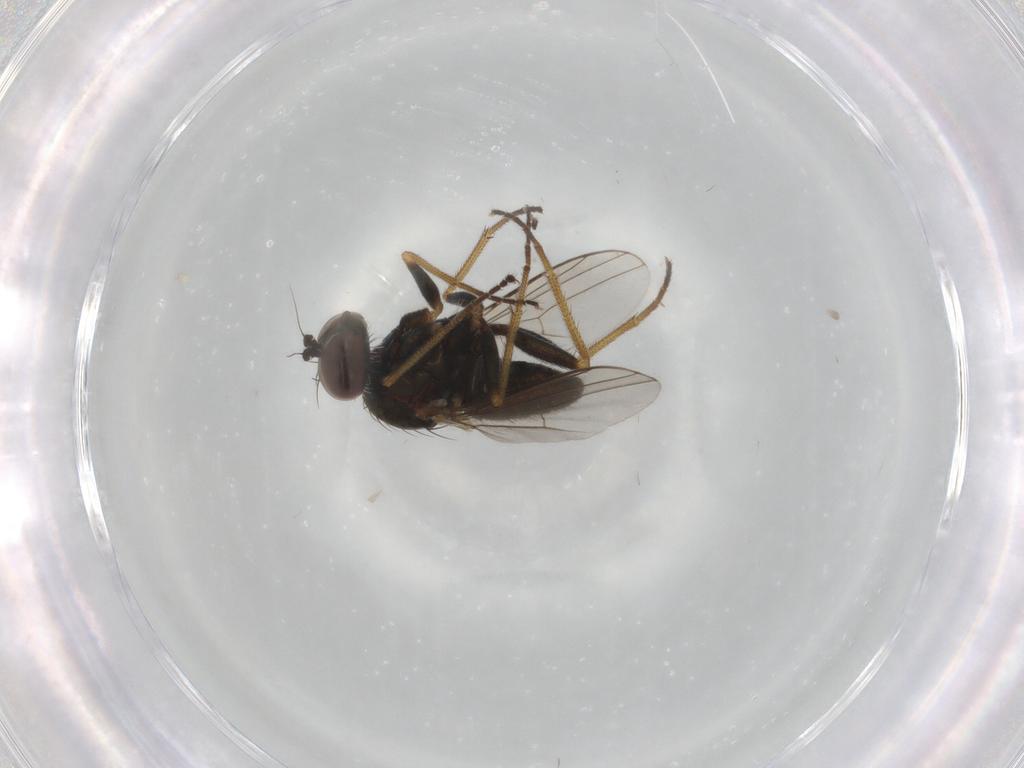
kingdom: Animalia
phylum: Arthropoda
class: Insecta
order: Diptera
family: Dolichopodidae
